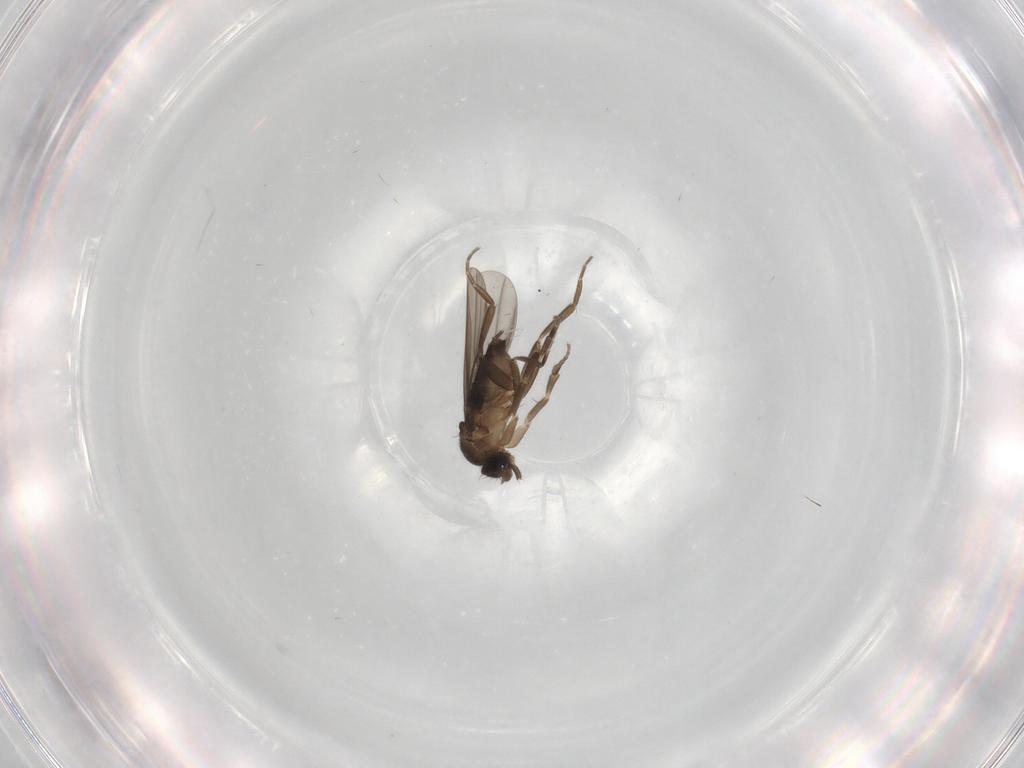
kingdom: Animalia
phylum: Arthropoda
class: Insecta
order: Diptera
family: Phoridae
